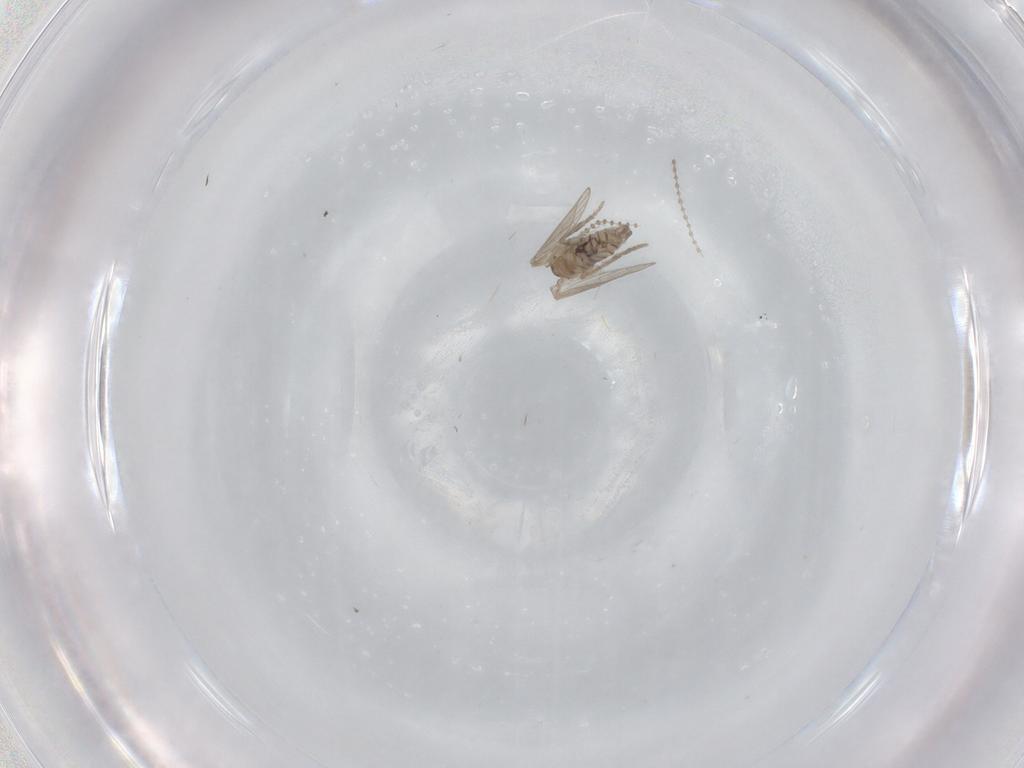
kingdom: Animalia
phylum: Arthropoda
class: Insecta
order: Diptera
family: Psychodidae
